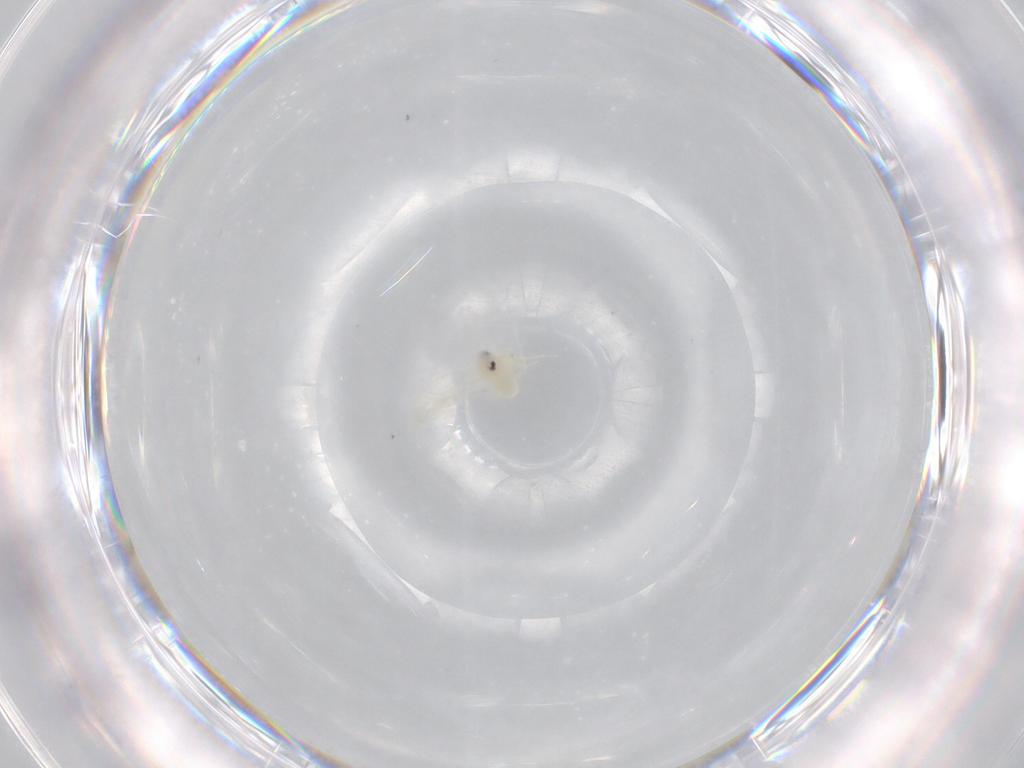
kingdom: Animalia
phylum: Arthropoda
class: Insecta
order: Hemiptera
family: Cicadellidae
